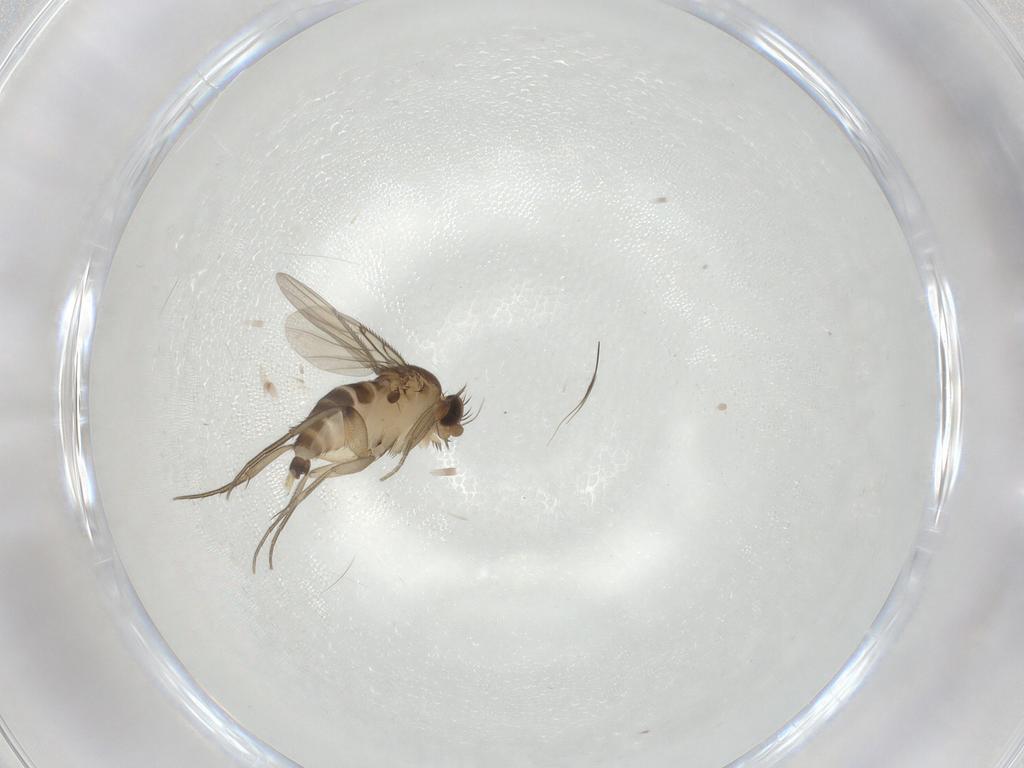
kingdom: Animalia
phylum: Arthropoda
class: Insecta
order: Diptera
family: Phoridae
